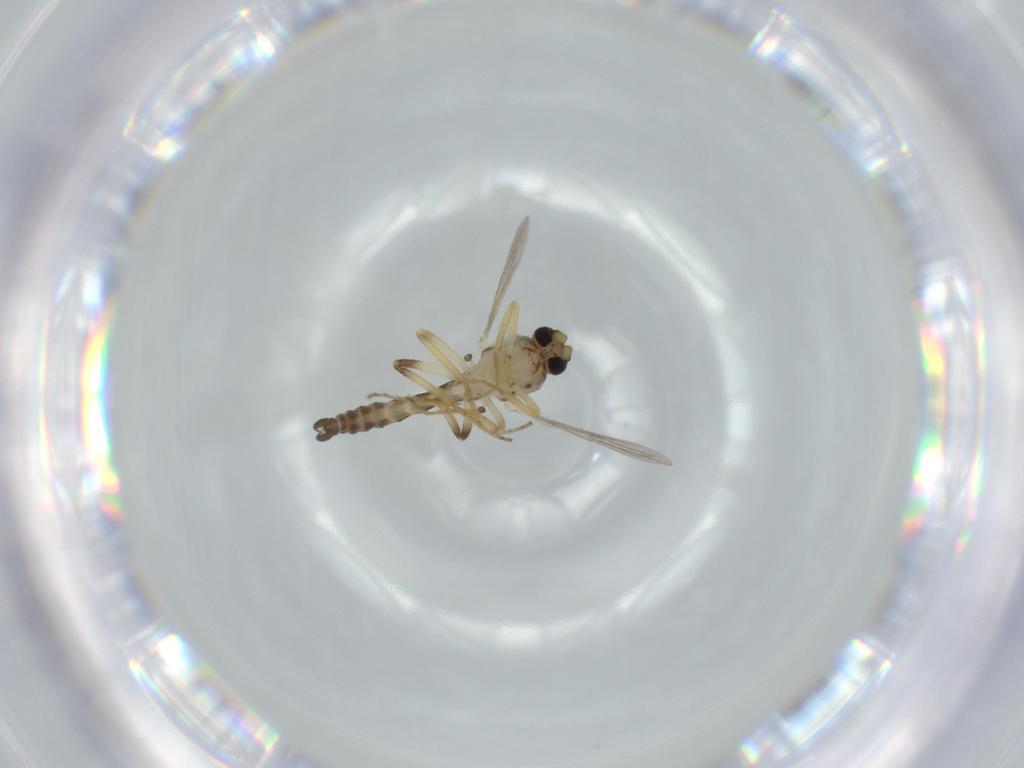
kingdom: Animalia
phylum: Arthropoda
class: Insecta
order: Diptera
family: Ceratopogonidae
